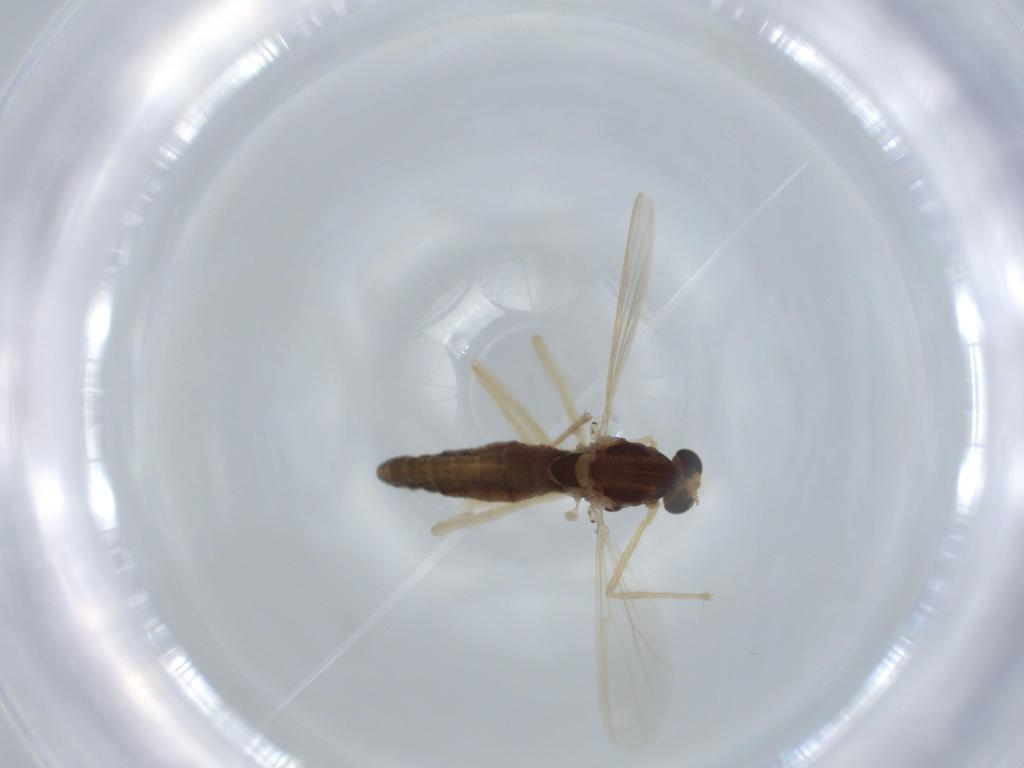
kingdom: Animalia
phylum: Arthropoda
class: Insecta
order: Diptera
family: Chironomidae
